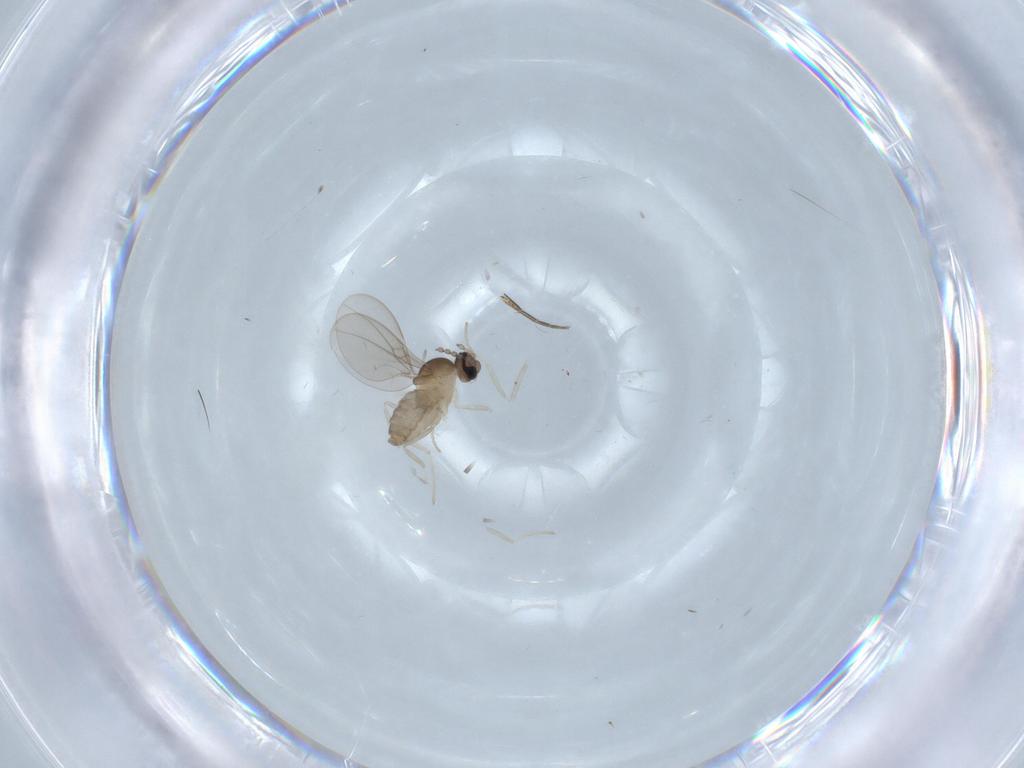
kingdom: Animalia
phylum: Arthropoda
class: Insecta
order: Diptera
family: Cecidomyiidae
